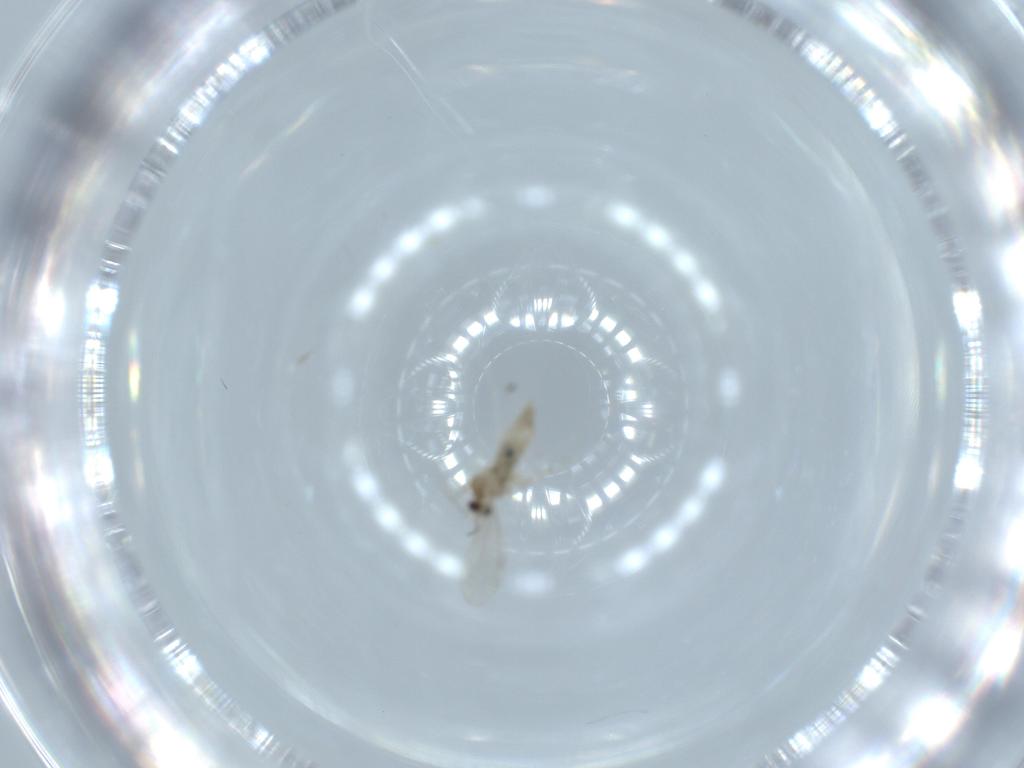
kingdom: Animalia
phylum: Arthropoda
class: Insecta
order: Diptera
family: Cecidomyiidae
